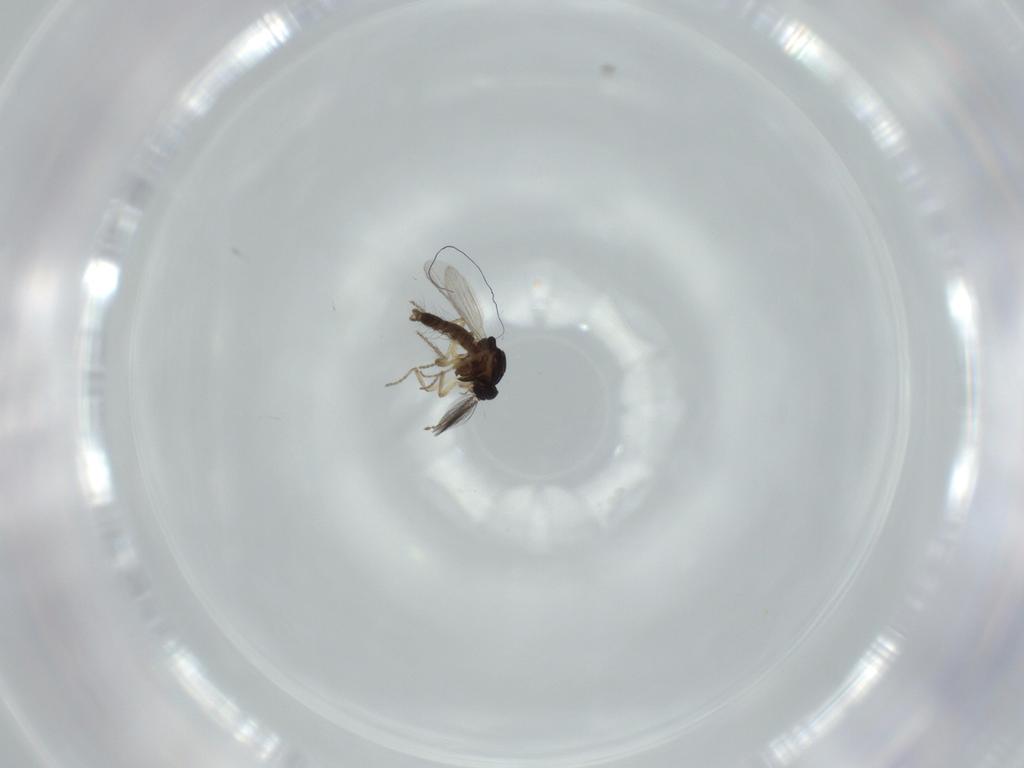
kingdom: Animalia
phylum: Arthropoda
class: Insecta
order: Diptera
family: Ceratopogonidae
